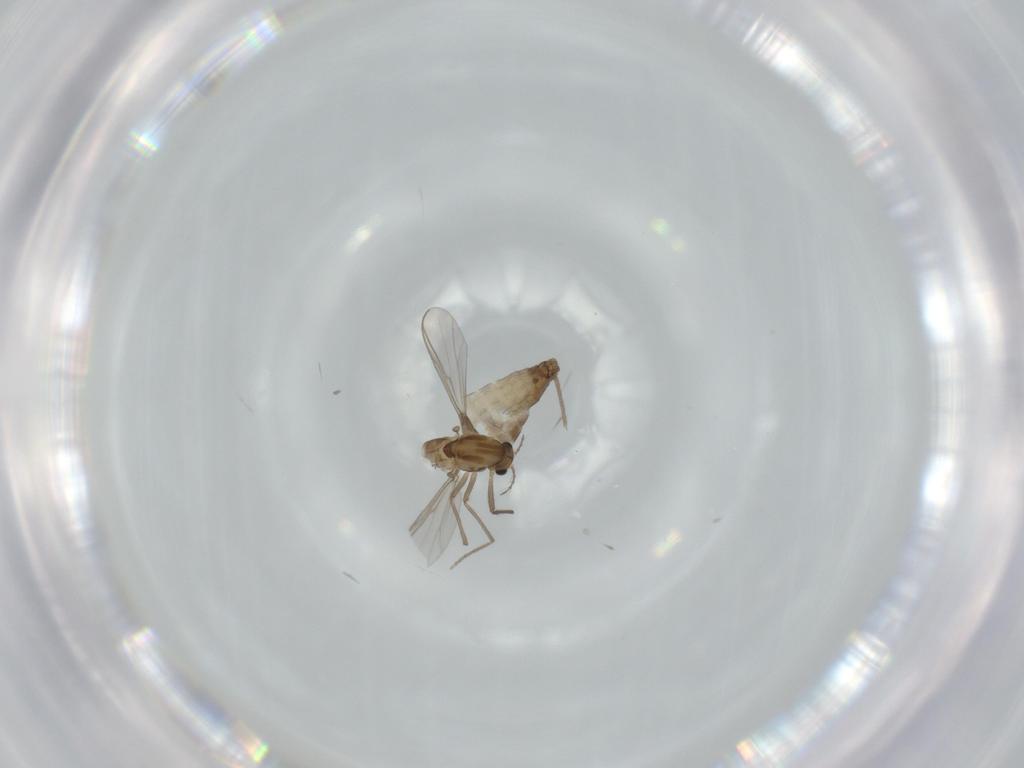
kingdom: Animalia
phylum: Arthropoda
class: Insecta
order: Diptera
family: Chironomidae
